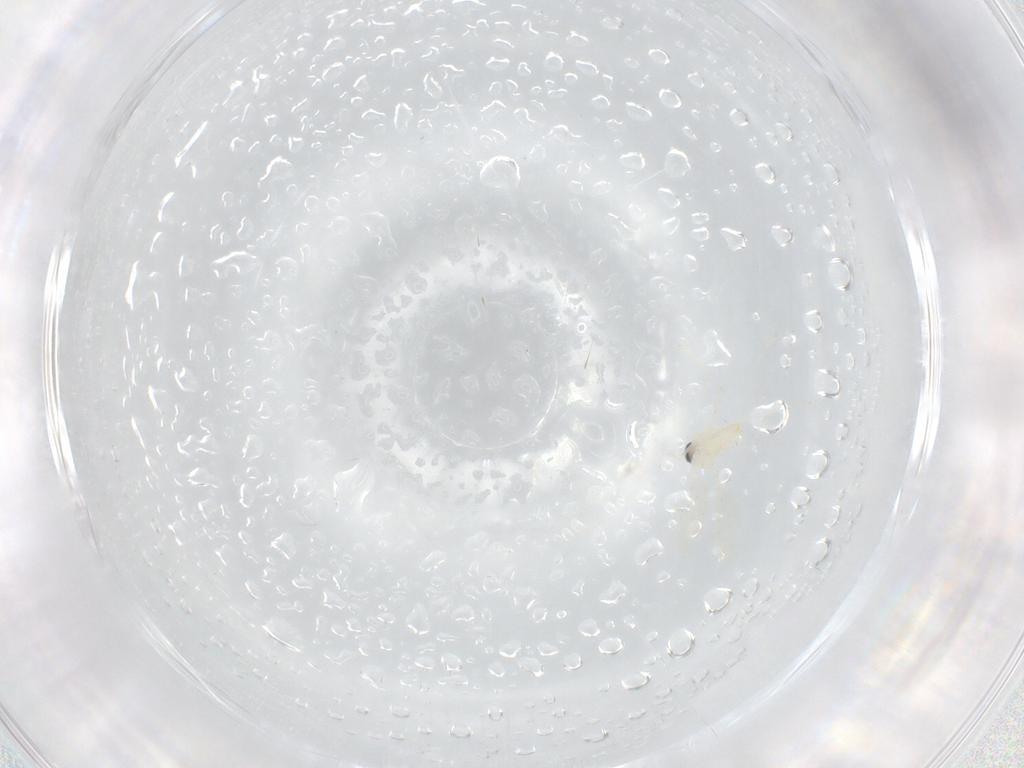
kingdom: Animalia
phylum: Arthropoda
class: Insecta
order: Diptera
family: Cecidomyiidae
